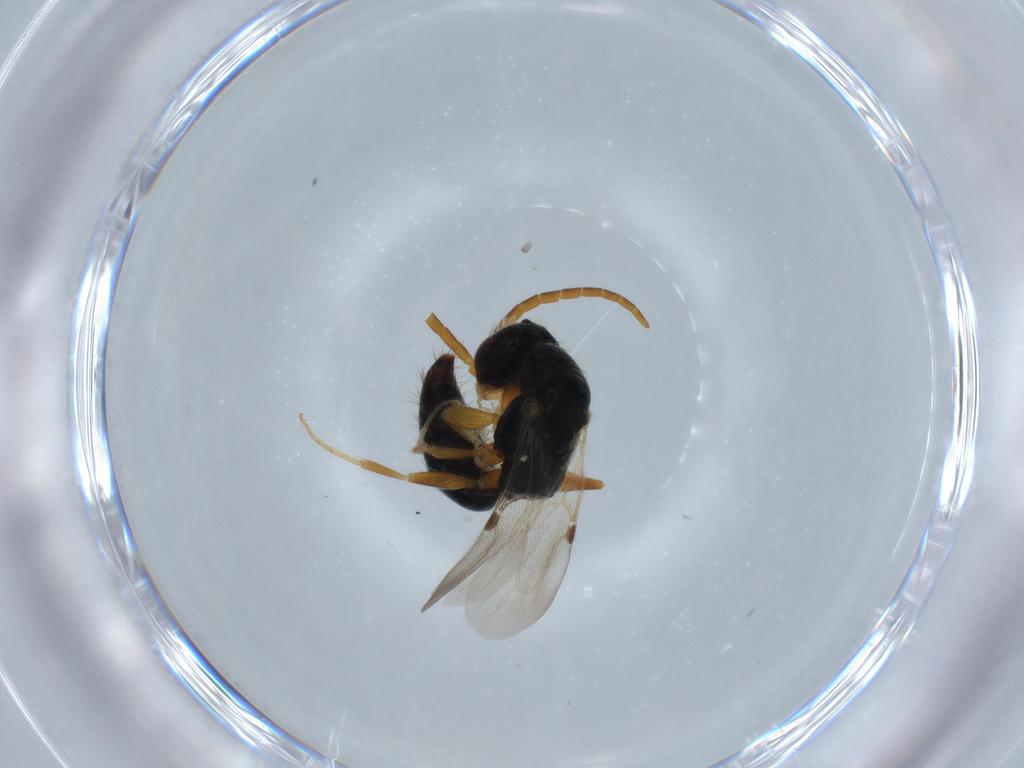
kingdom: Animalia
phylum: Arthropoda
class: Insecta
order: Hymenoptera
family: Bethylidae
